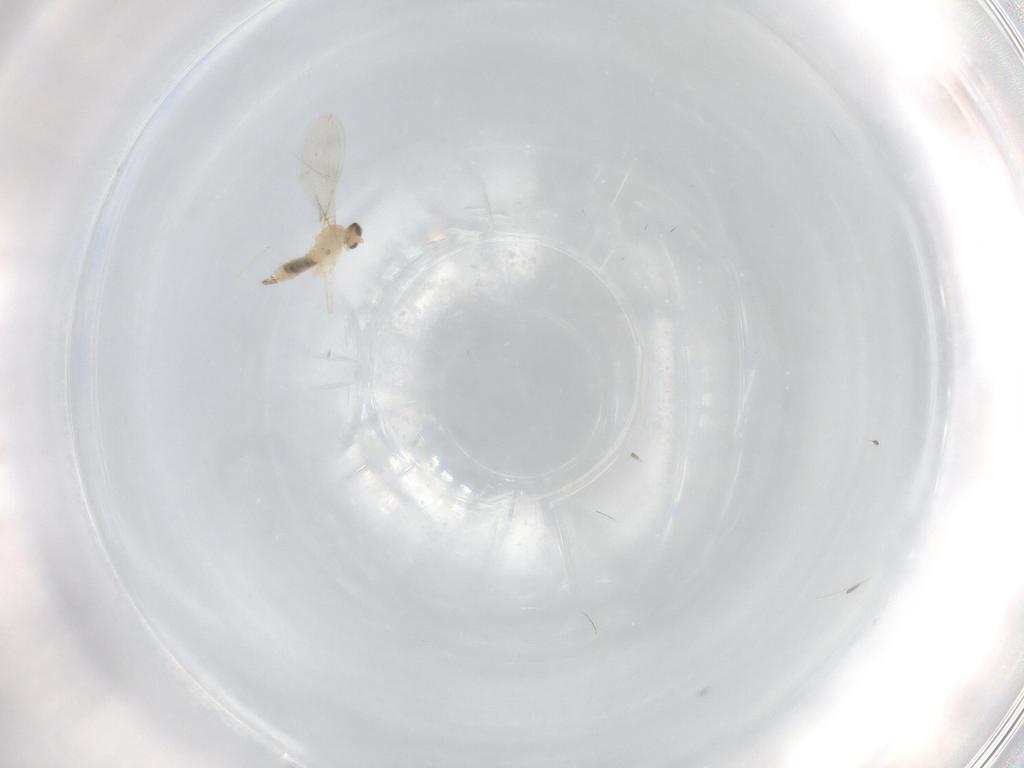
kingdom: Animalia
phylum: Arthropoda
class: Insecta
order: Diptera
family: Cecidomyiidae
